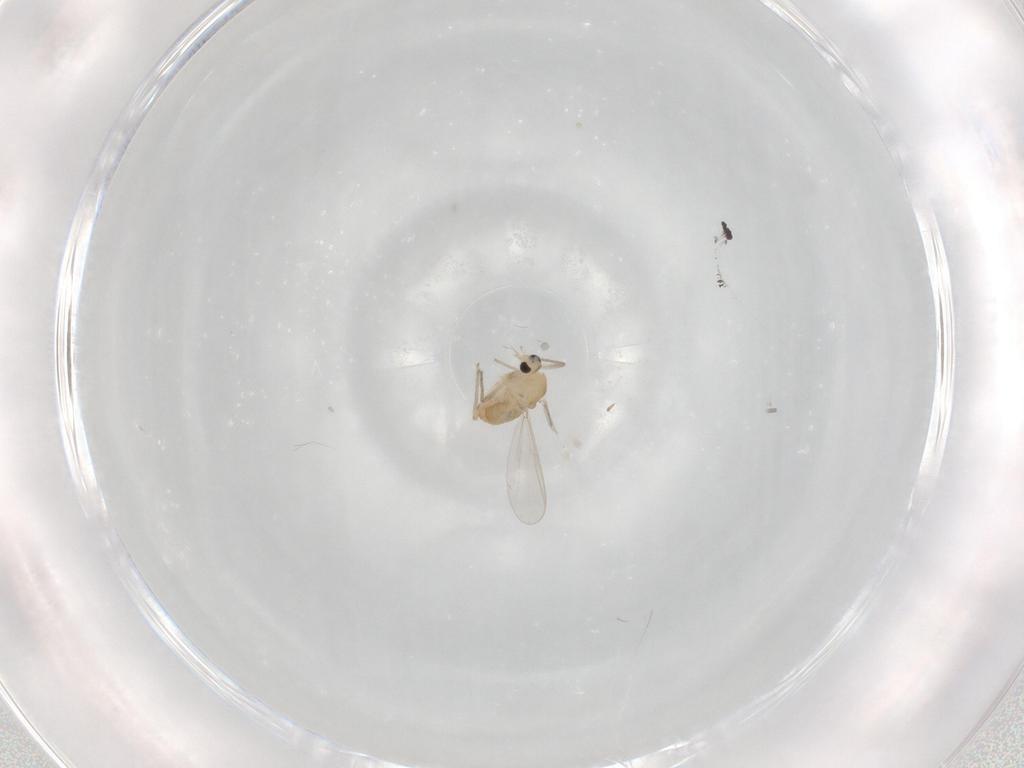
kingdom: Animalia
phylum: Arthropoda
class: Insecta
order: Diptera
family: Chironomidae
